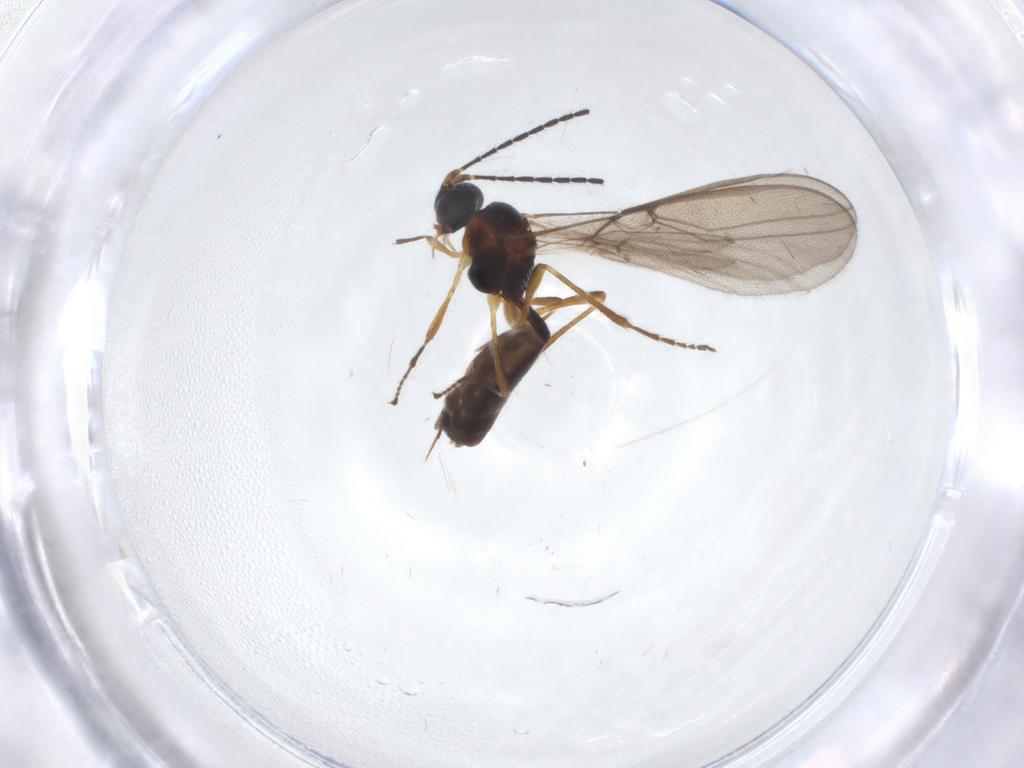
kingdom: Animalia
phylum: Arthropoda
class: Insecta
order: Hymenoptera
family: Braconidae
